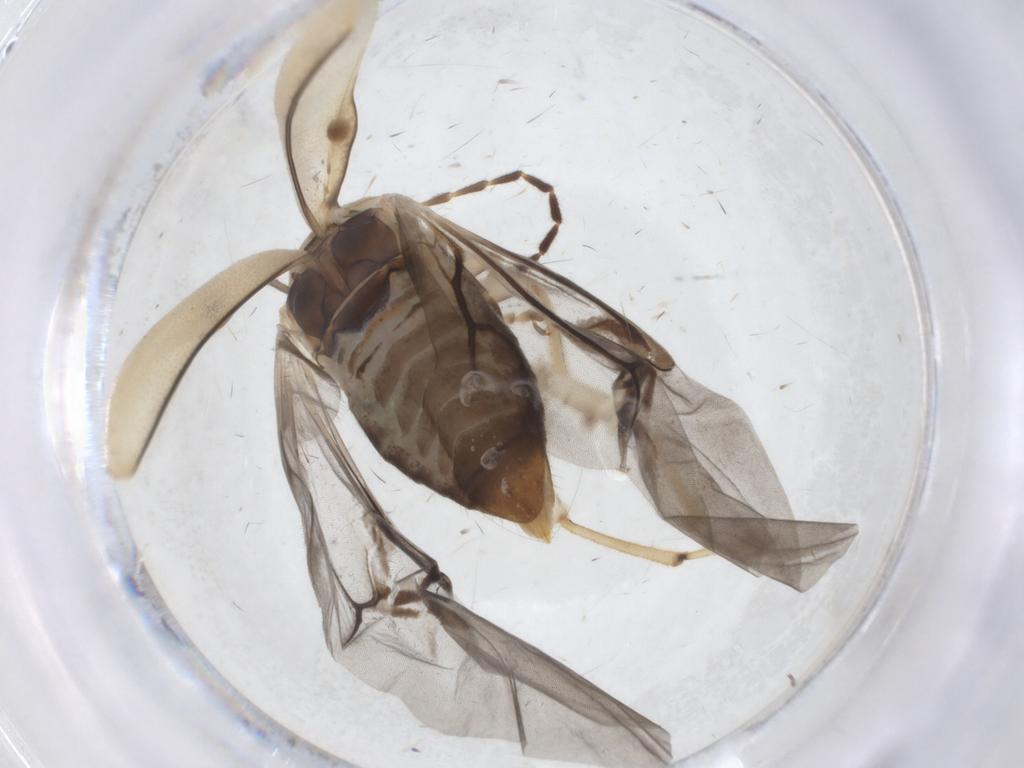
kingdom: Animalia
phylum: Arthropoda
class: Insecta
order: Coleoptera
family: Chrysomelidae
